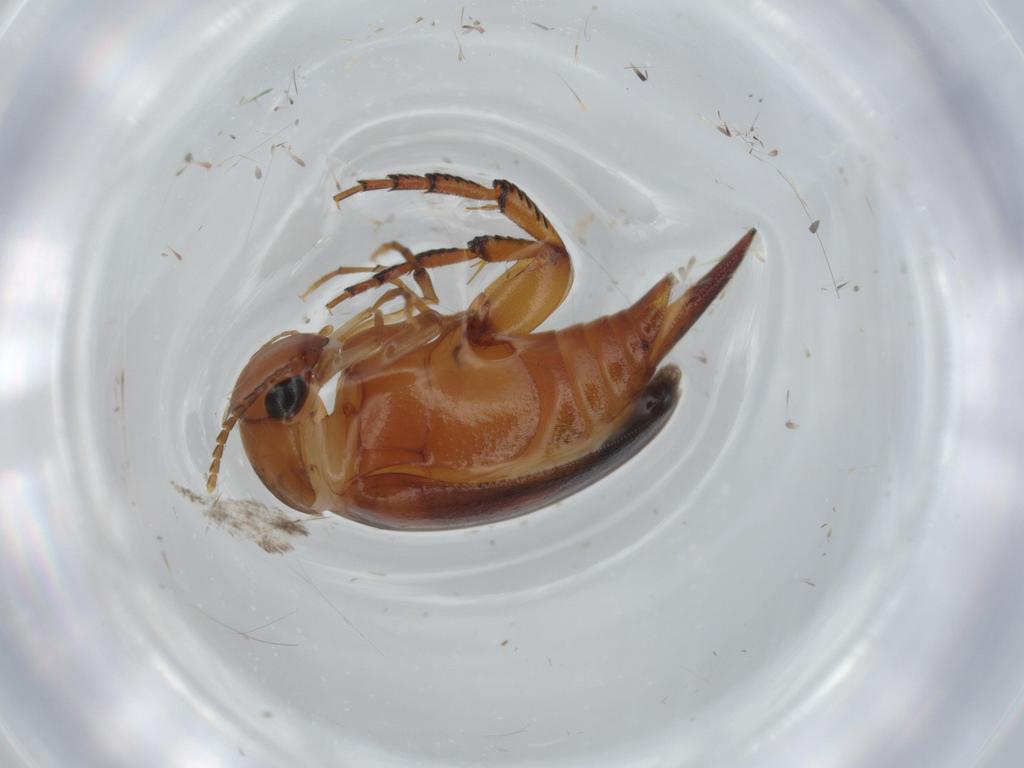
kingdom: Animalia
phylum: Arthropoda
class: Insecta
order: Coleoptera
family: Mordellidae
